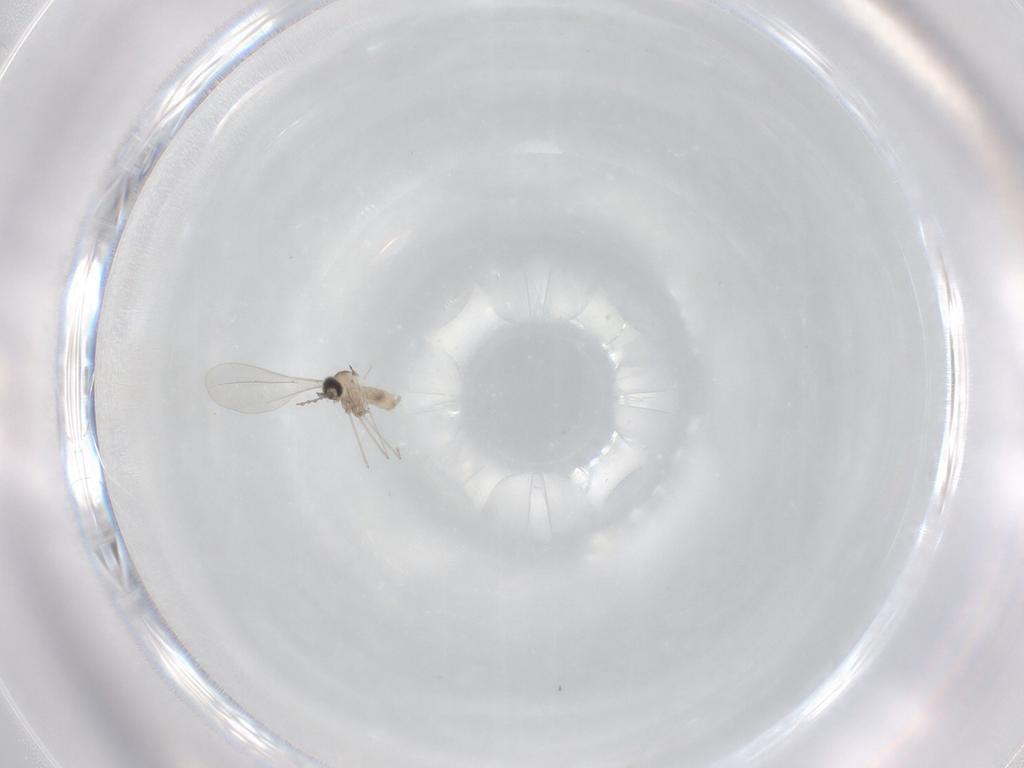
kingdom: Animalia
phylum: Arthropoda
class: Insecta
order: Diptera
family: Cecidomyiidae
